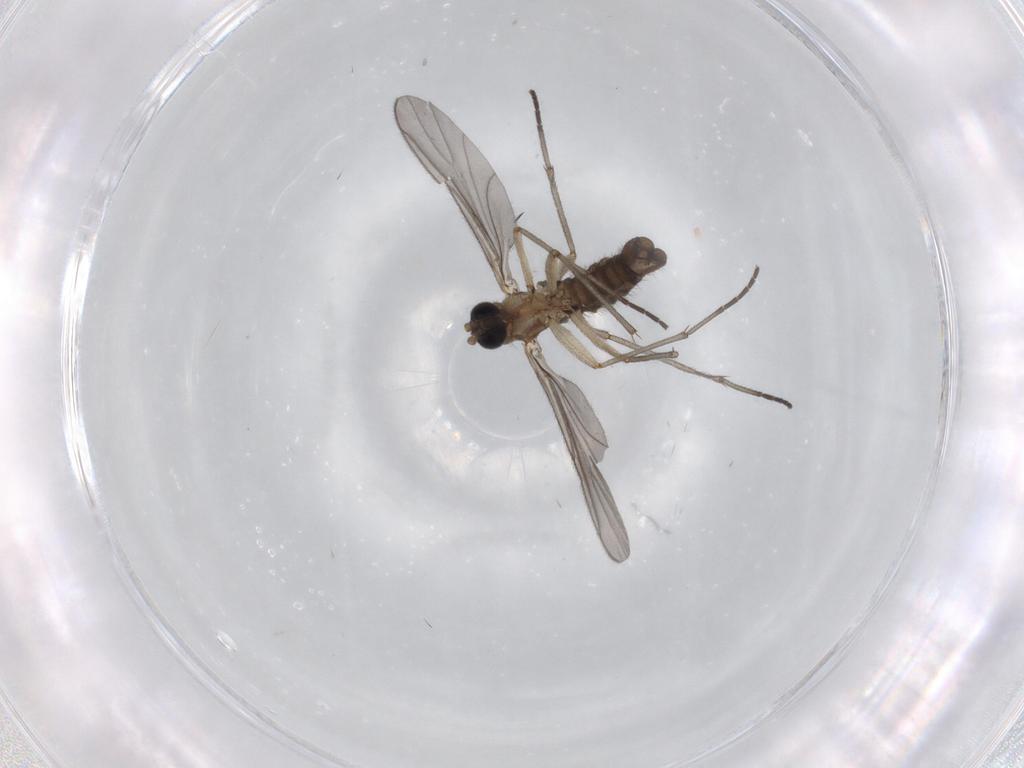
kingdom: Animalia
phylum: Arthropoda
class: Insecta
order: Diptera
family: Sciaridae
